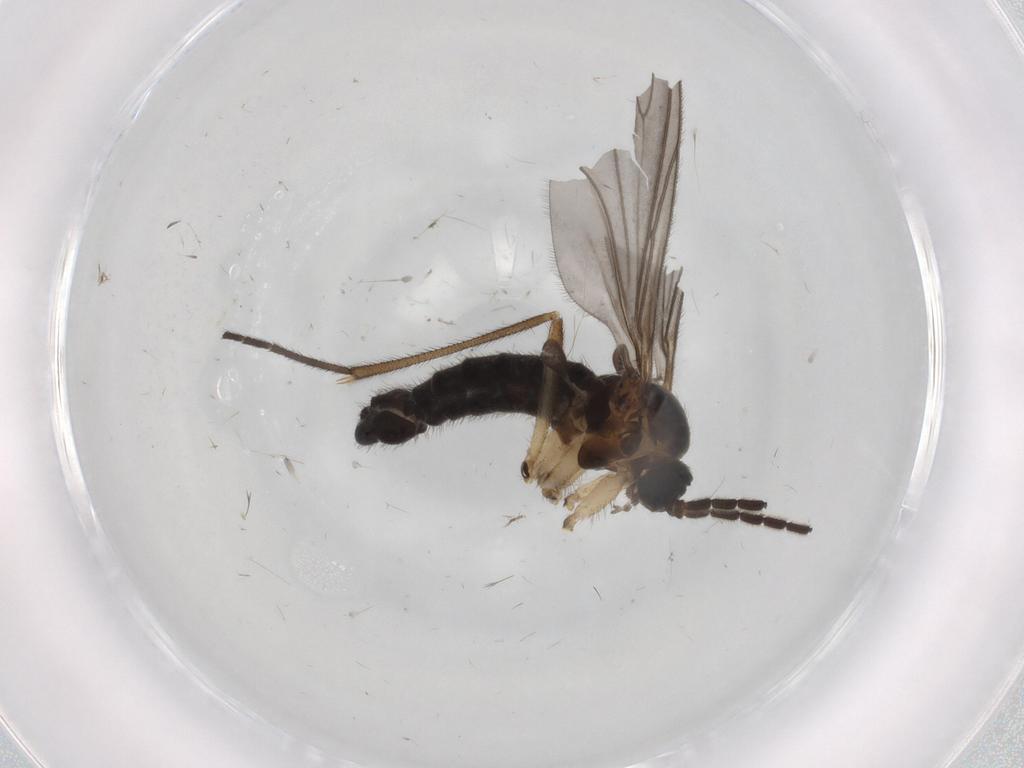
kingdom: Animalia
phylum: Arthropoda
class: Insecta
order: Diptera
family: Sciaridae
